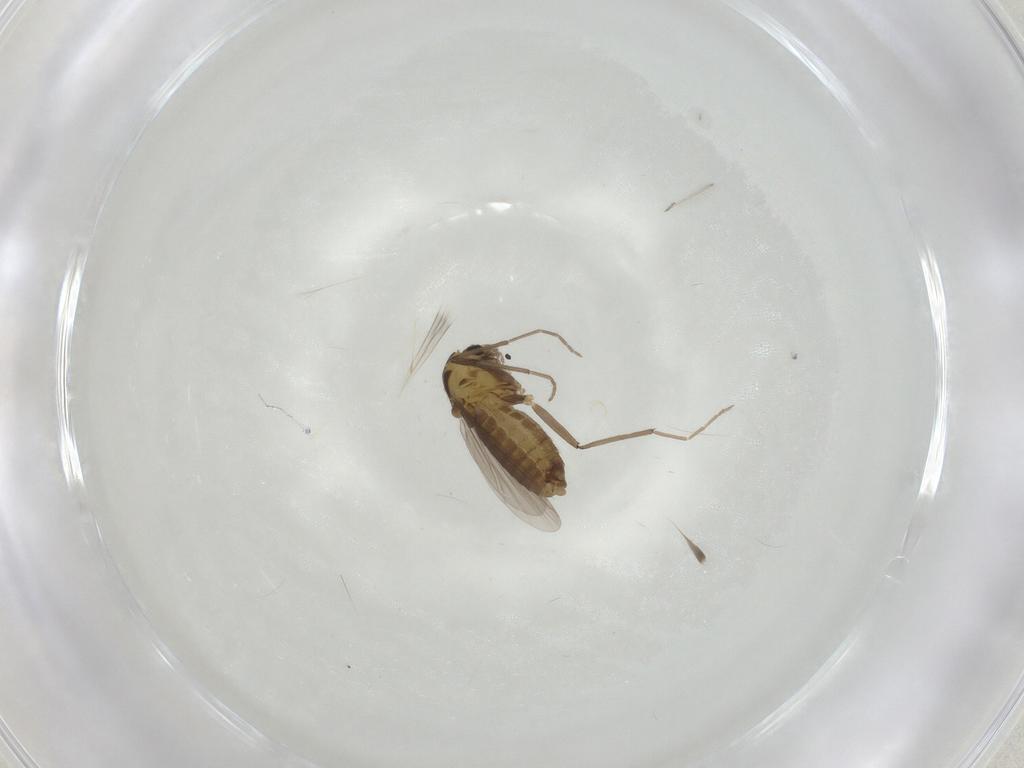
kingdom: Animalia
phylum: Arthropoda
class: Insecta
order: Diptera
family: Chironomidae
